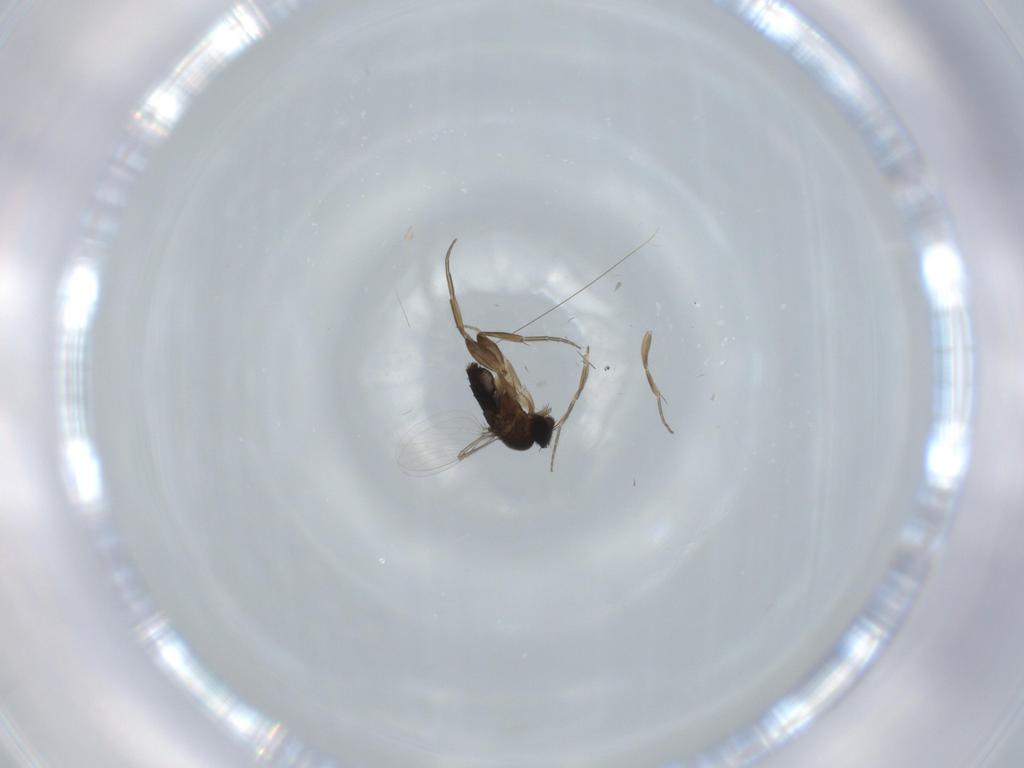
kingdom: Animalia
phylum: Arthropoda
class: Insecta
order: Diptera
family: Phoridae
